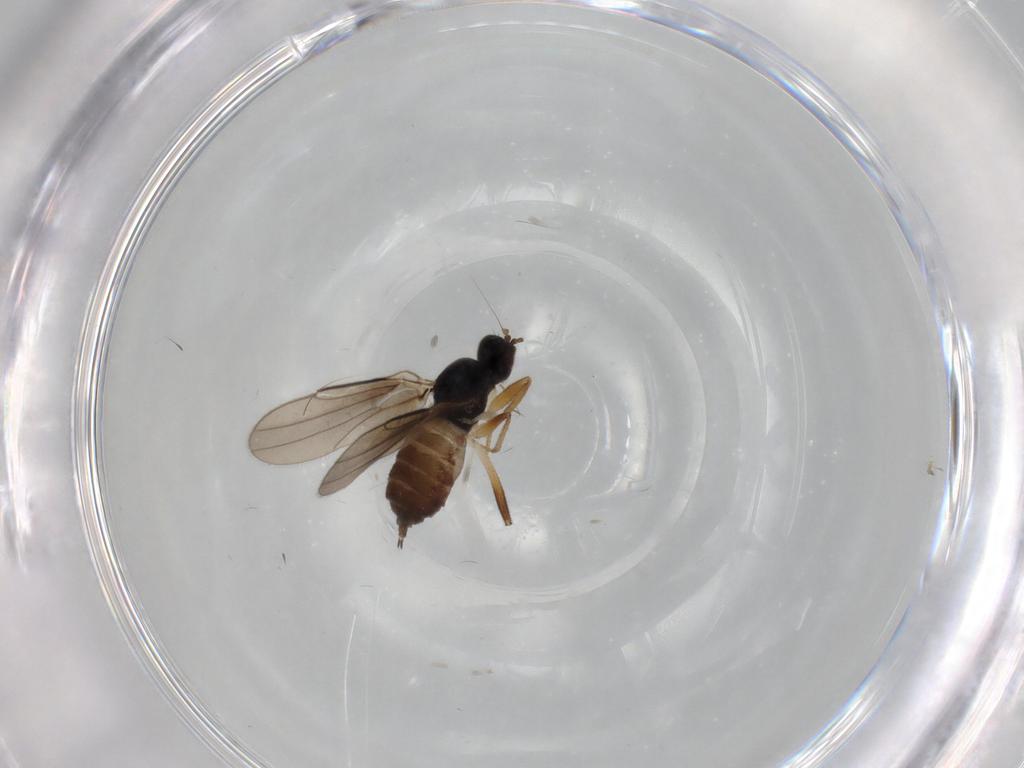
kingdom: Animalia
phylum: Arthropoda
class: Insecta
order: Diptera
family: Hybotidae
